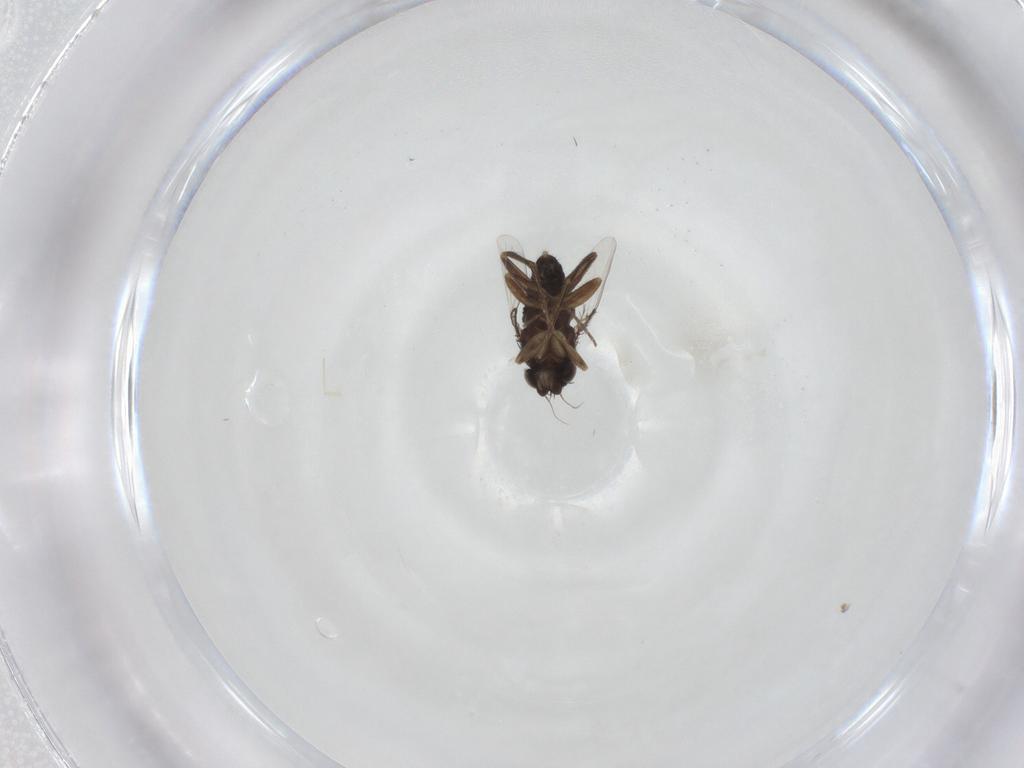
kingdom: Animalia
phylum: Arthropoda
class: Insecta
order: Diptera
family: Phoridae
